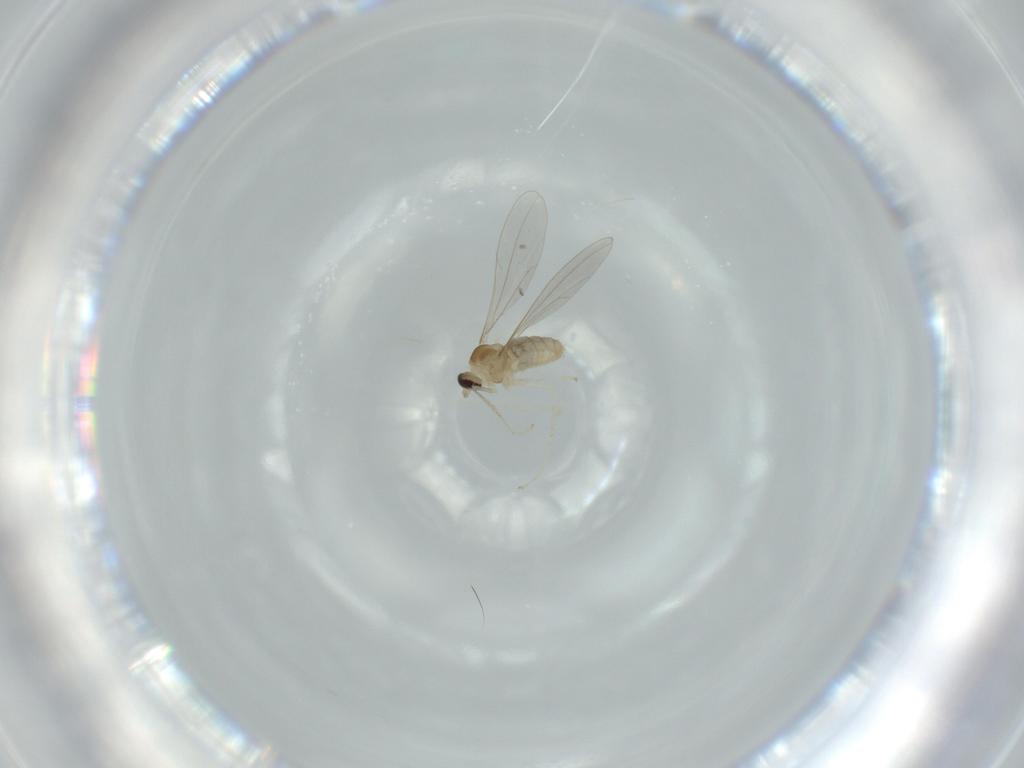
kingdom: Animalia
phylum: Arthropoda
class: Insecta
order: Diptera
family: Cecidomyiidae
